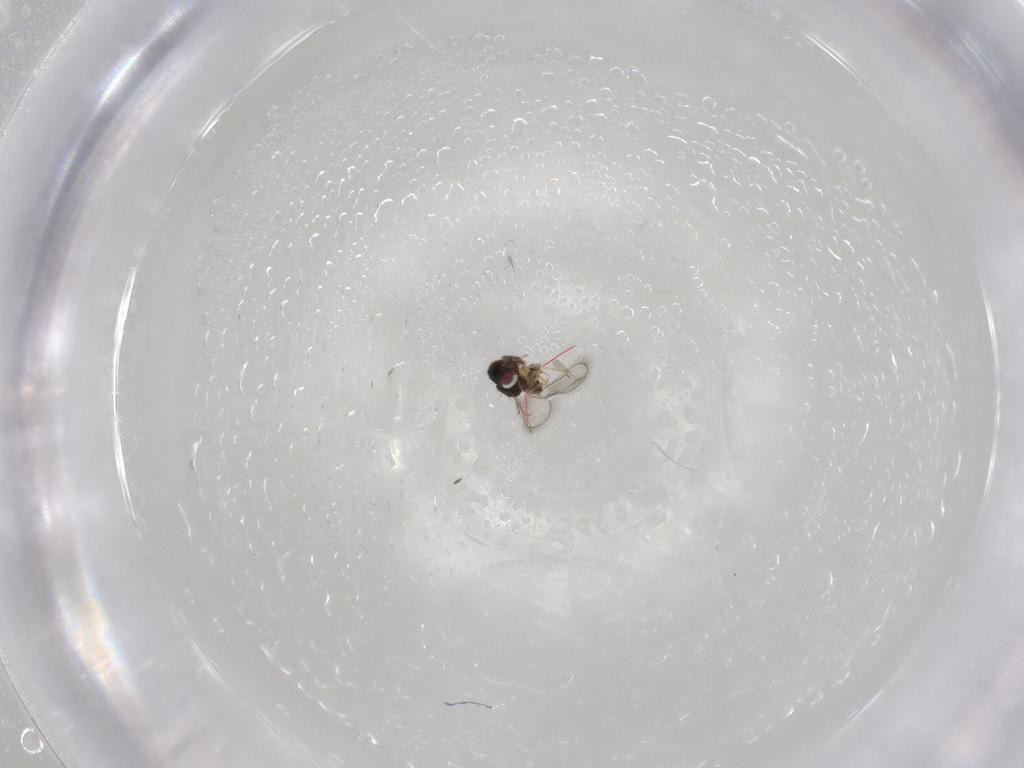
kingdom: Animalia
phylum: Arthropoda
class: Insecta
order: Hymenoptera
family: Eulophidae
